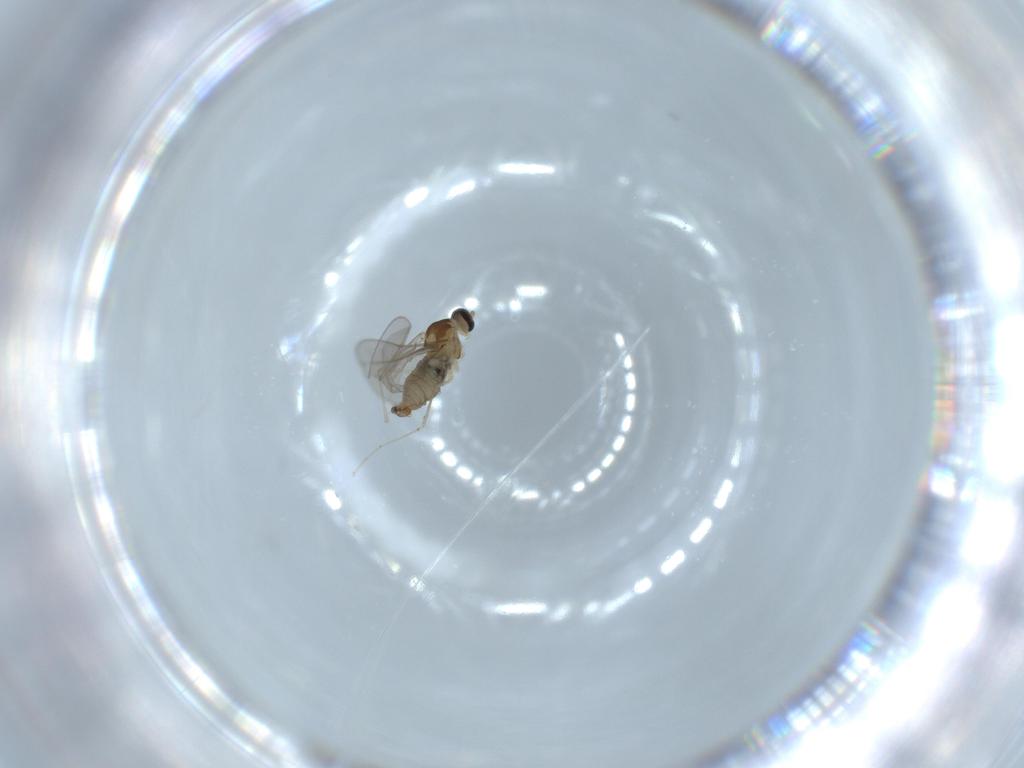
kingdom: Animalia
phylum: Arthropoda
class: Insecta
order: Diptera
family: Cecidomyiidae
